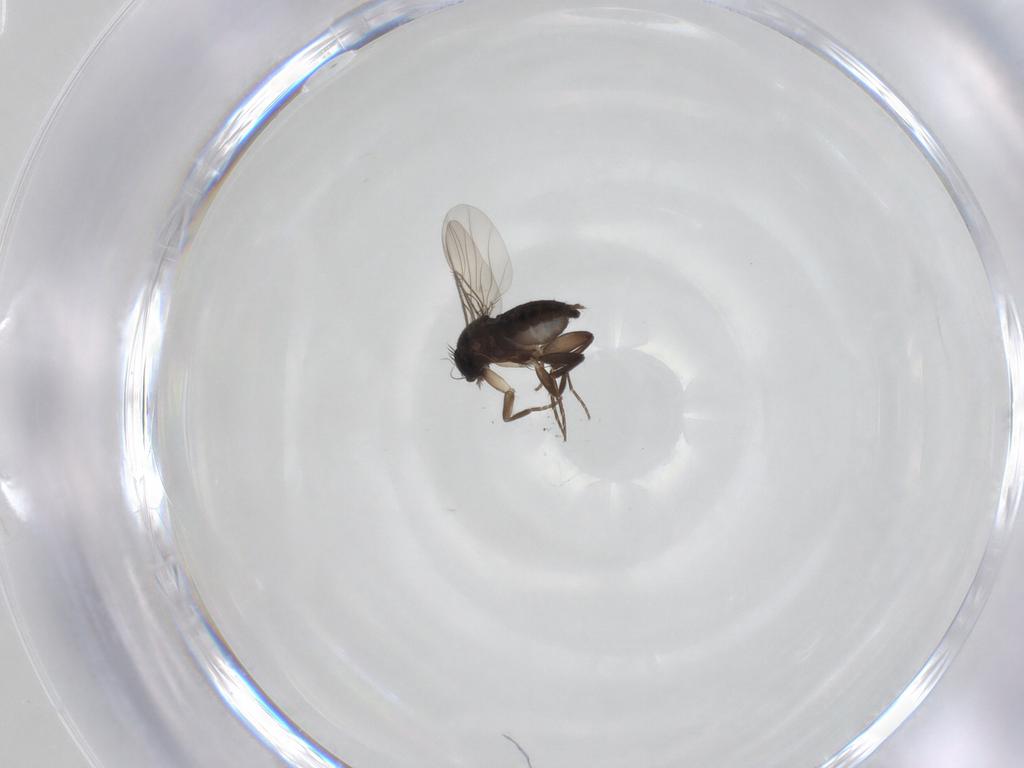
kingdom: Animalia
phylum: Arthropoda
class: Insecta
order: Diptera
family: Phoridae
